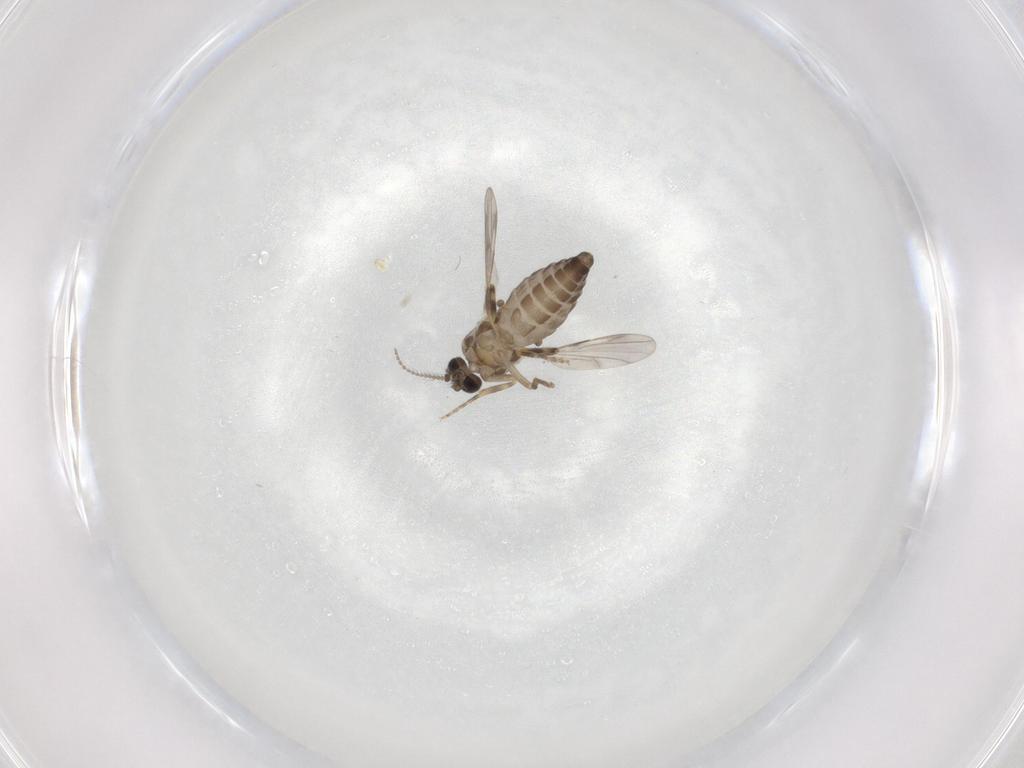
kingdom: Animalia
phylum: Arthropoda
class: Insecta
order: Diptera
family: Ceratopogonidae
